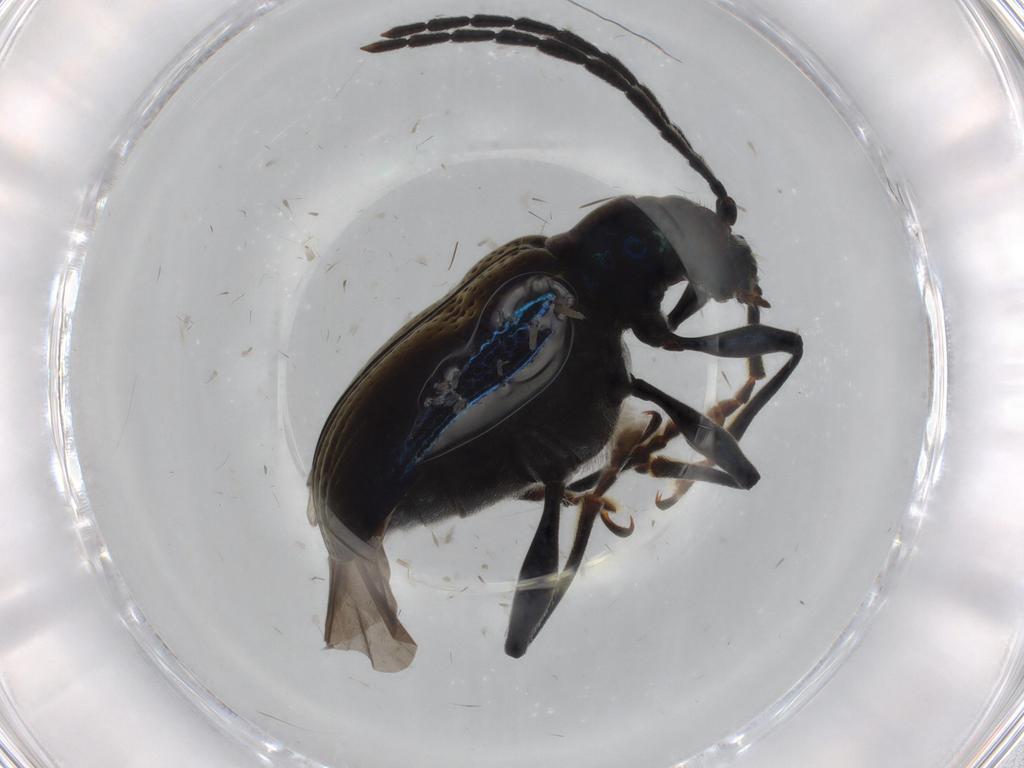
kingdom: Animalia
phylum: Arthropoda
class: Insecta
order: Coleoptera
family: Chrysomelidae
